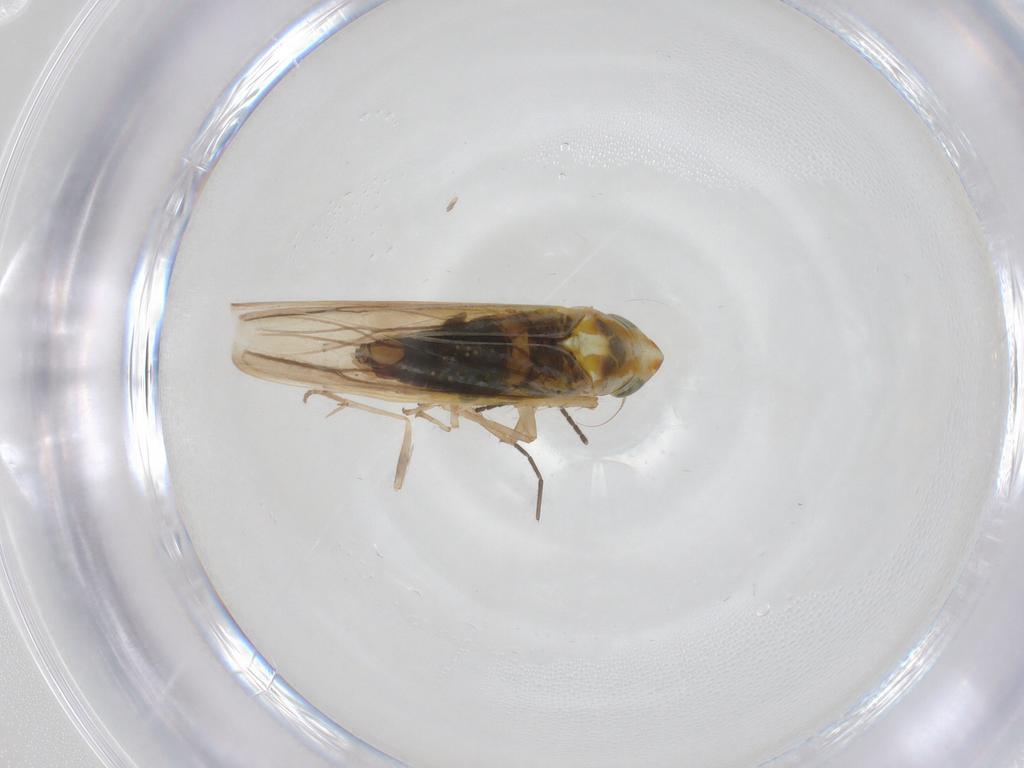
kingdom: Animalia
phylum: Arthropoda
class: Insecta
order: Hemiptera
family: Cicadellidae
